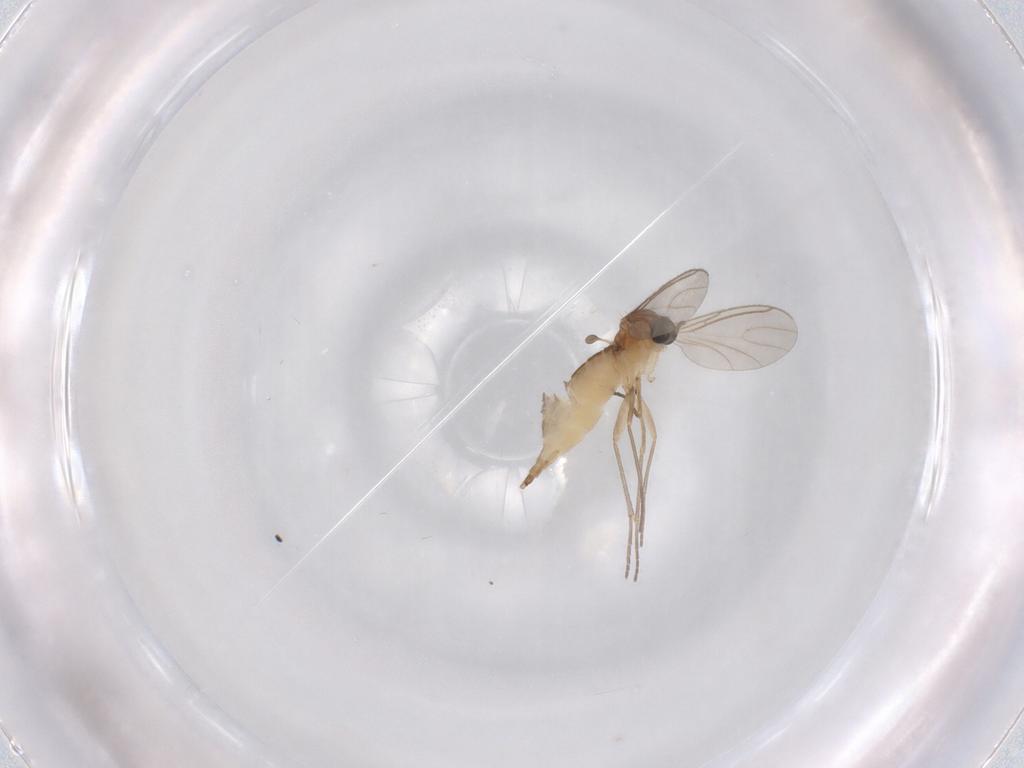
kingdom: Animalia
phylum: Arthropoda
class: Insecta
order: Diptera
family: Sciaridae
